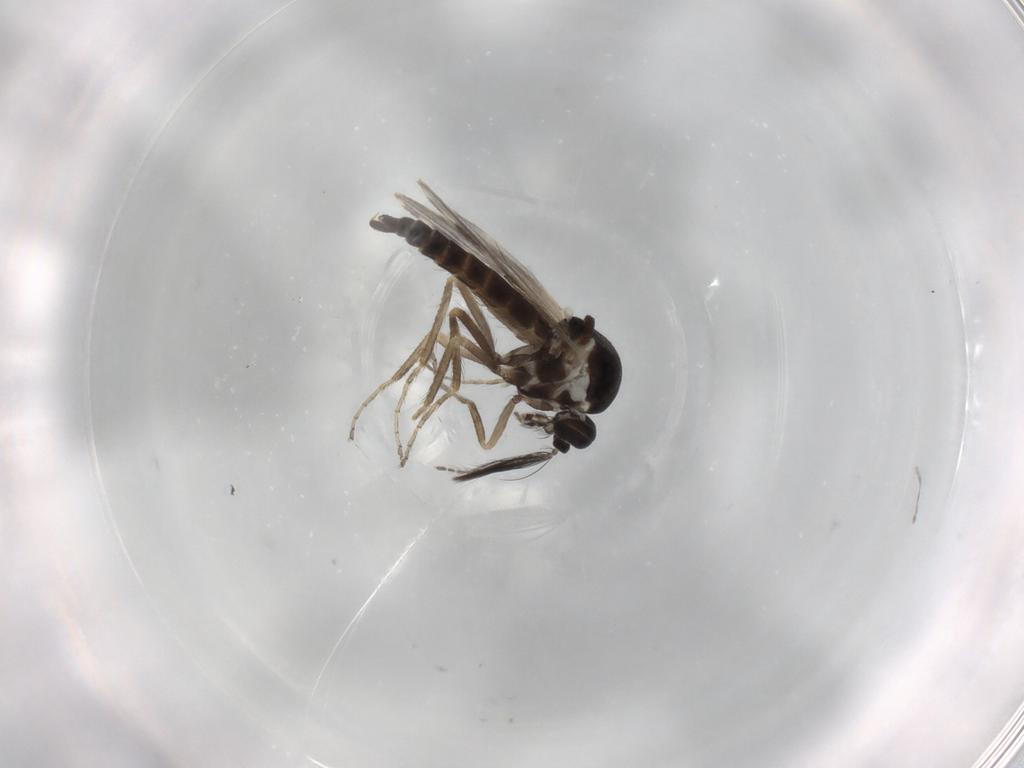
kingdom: Animalia
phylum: Arthropoda
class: Insecta
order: Diptera
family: Ceratopogonidae
